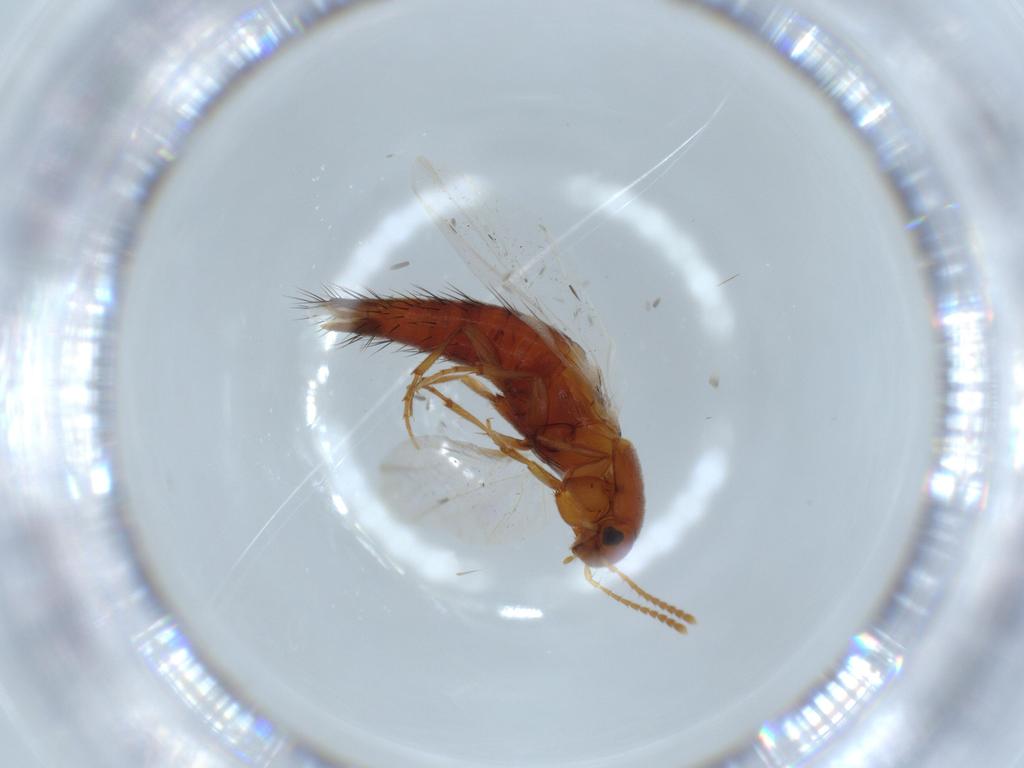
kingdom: Animalia
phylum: Arthropoda
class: Insecta
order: Coleoptera
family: Staphylinidae
